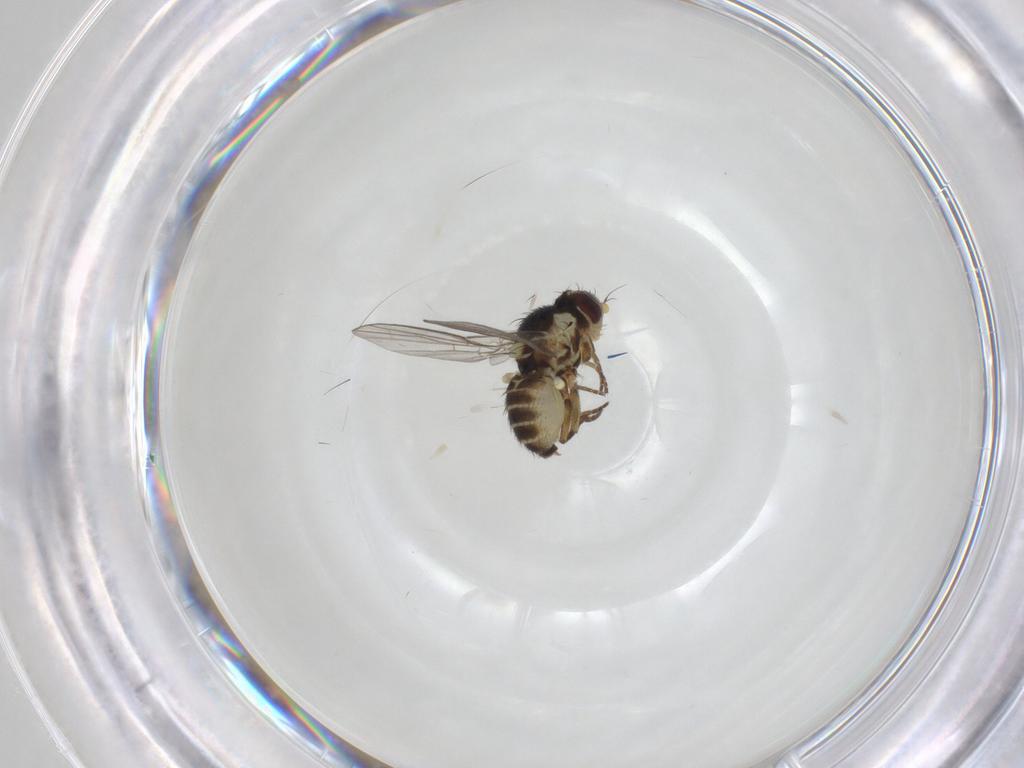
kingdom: Animalia
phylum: Arthropoda
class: Insecta
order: Diptera
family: Agromyzidae
